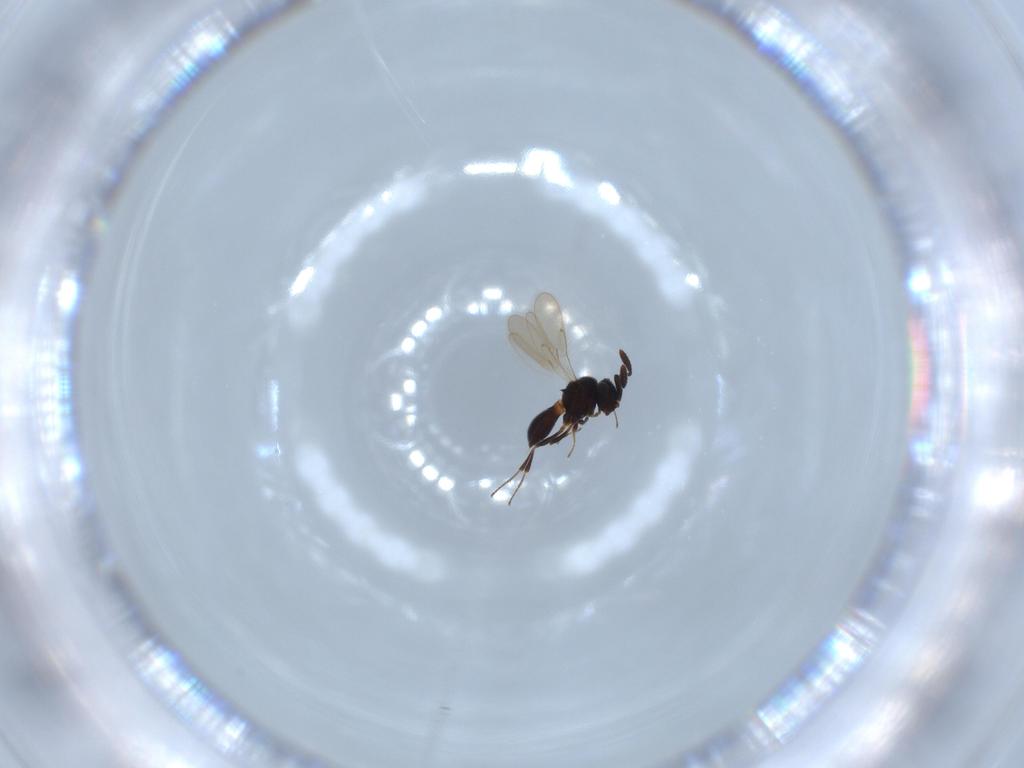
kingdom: Animalia
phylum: Arthropoda
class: Insecta
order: Hymenoptera
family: Scelionidae
